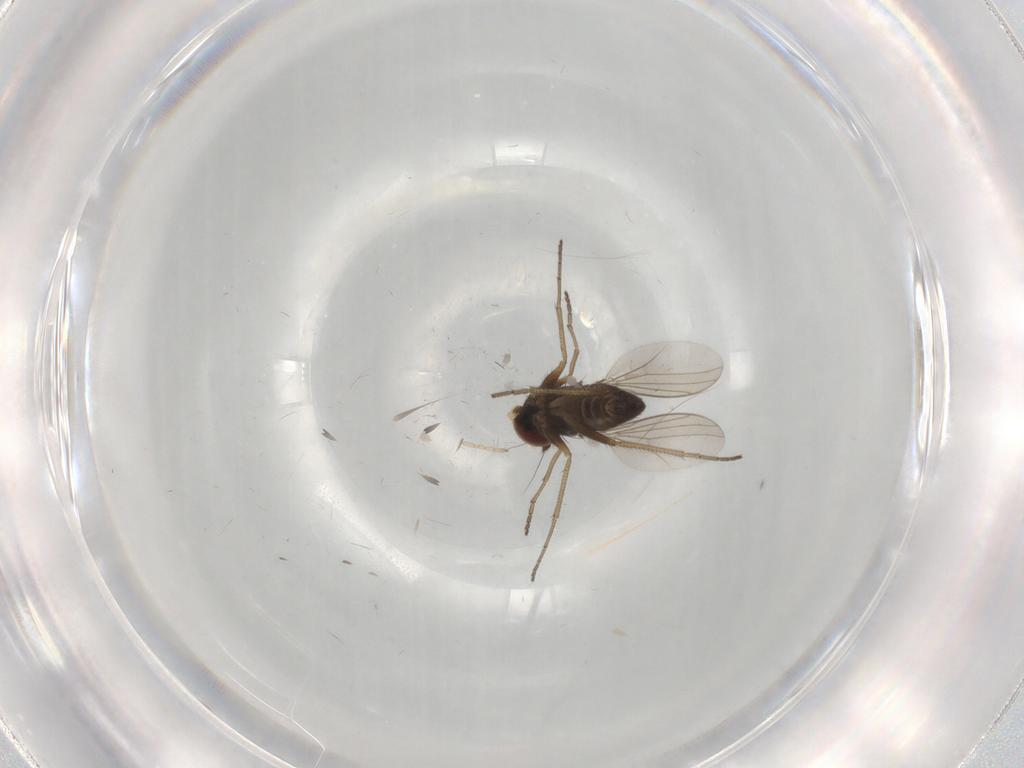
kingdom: Animalia
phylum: Arthropoda
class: Insecta
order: Diptera
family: Dolichopodidae
